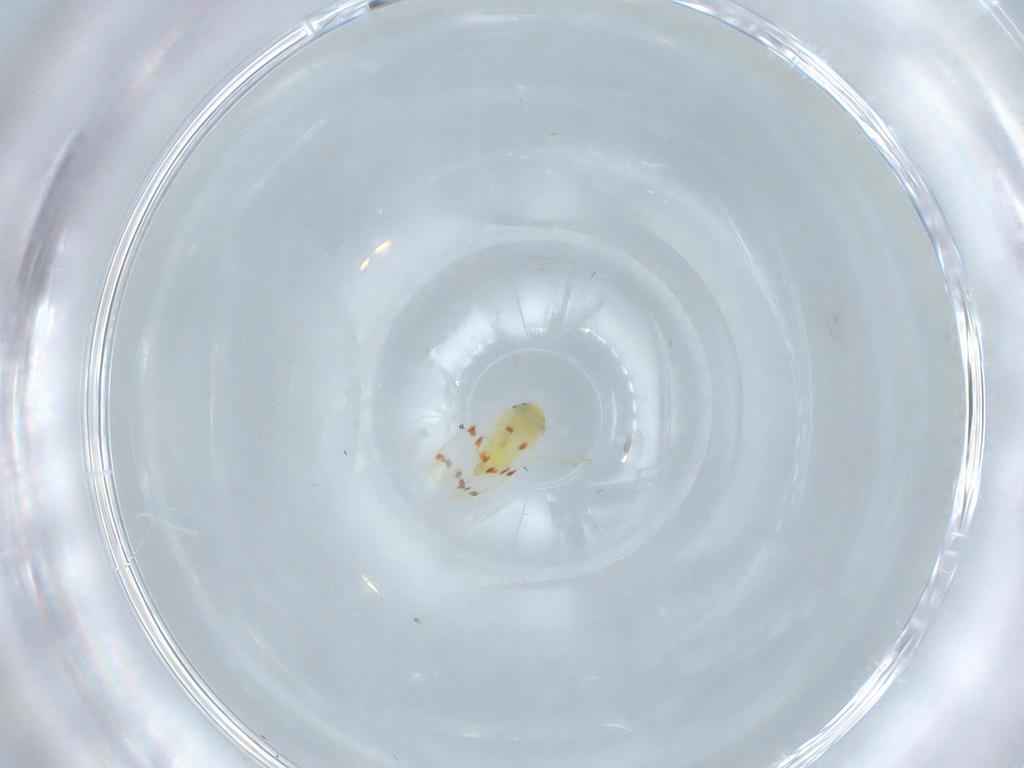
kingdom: Animalia
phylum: Arthropoda
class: Insecta
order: Hemiptera
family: Aleyrodidae
